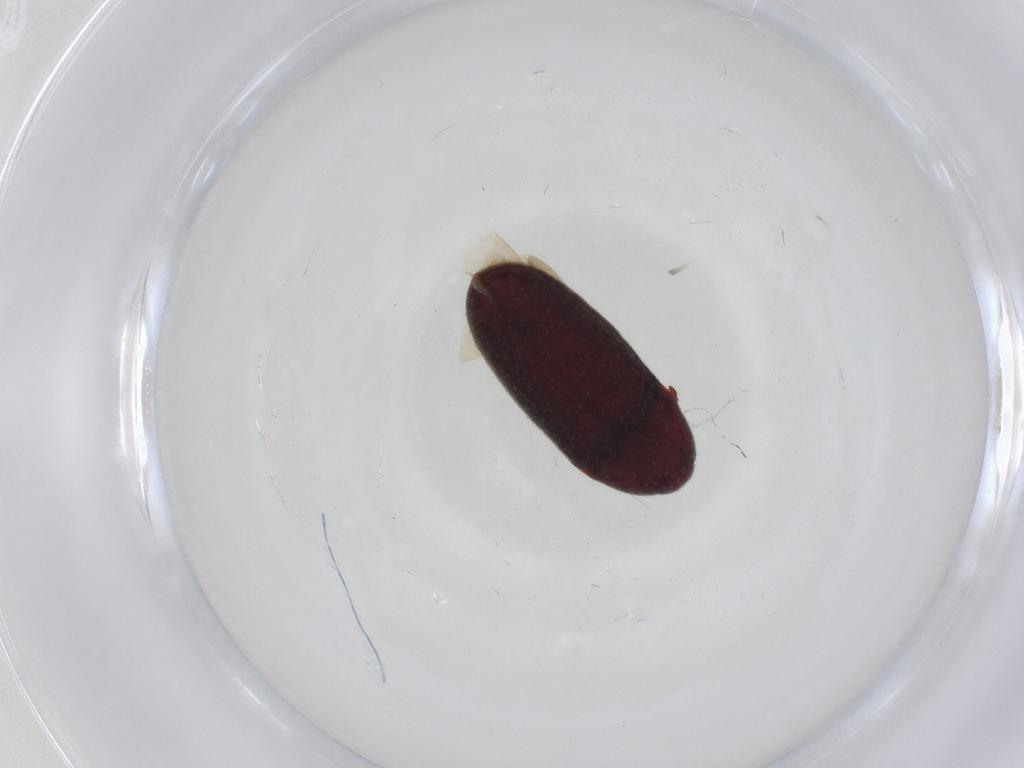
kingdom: Animalia
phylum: Arthropoda
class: Insecta
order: Coleoptera
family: Throscidae
